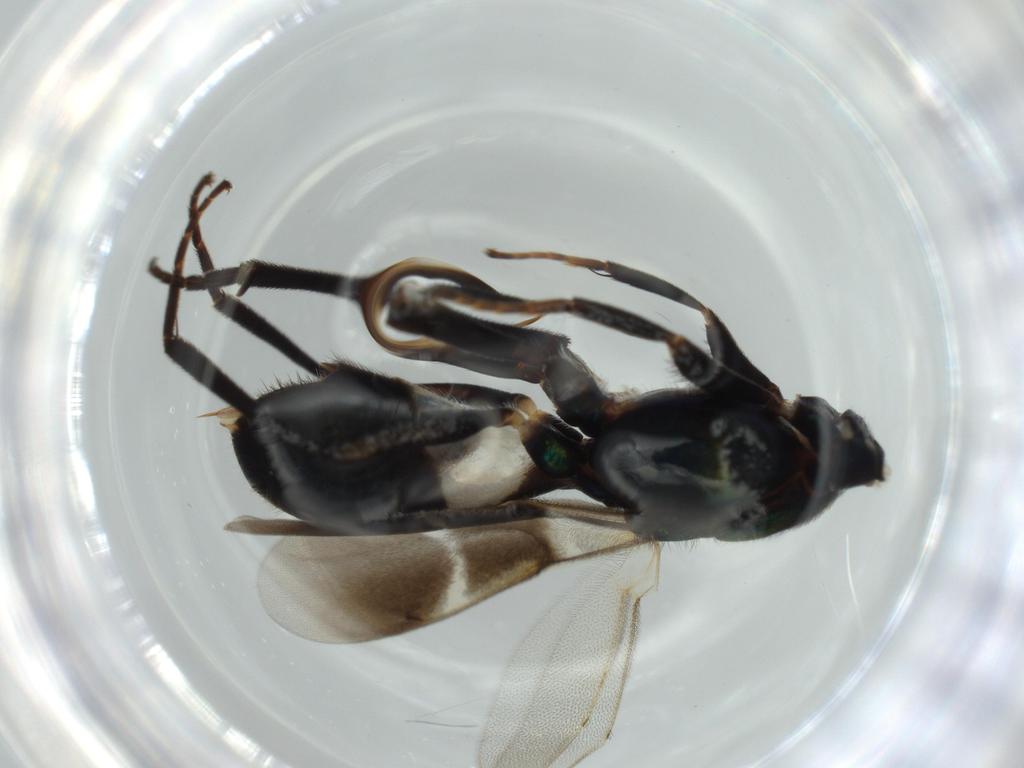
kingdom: Animalia
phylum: Arthropoda
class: Insecta
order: Hymenoptera
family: Eupelmidae
